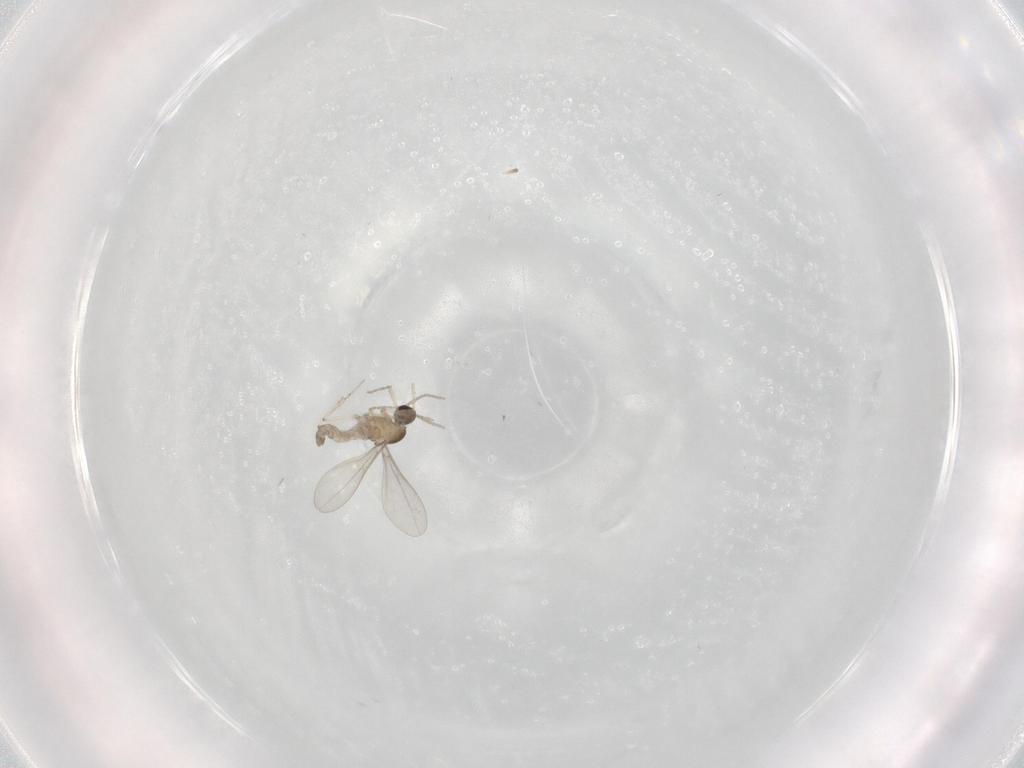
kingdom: Animalia
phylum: Arthropoda
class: Insecta
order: Diptera
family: Cecidomyiidae
